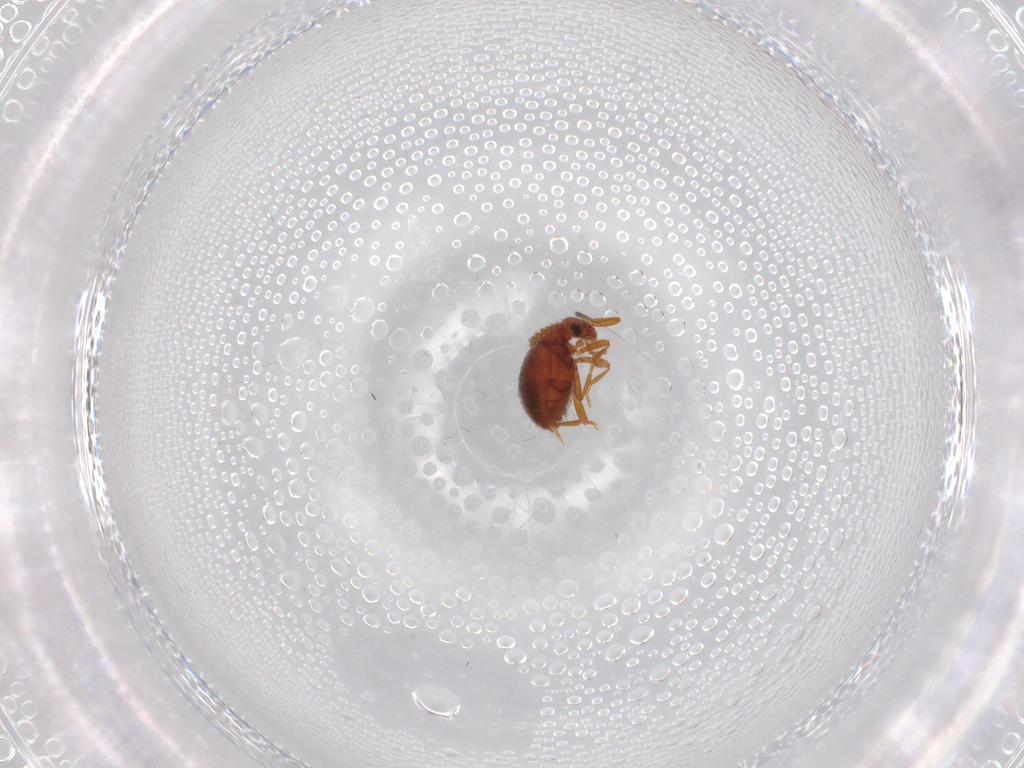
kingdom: Animalia
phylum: Arthropoda
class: Insecta
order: Coleoptera
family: Aderidae
